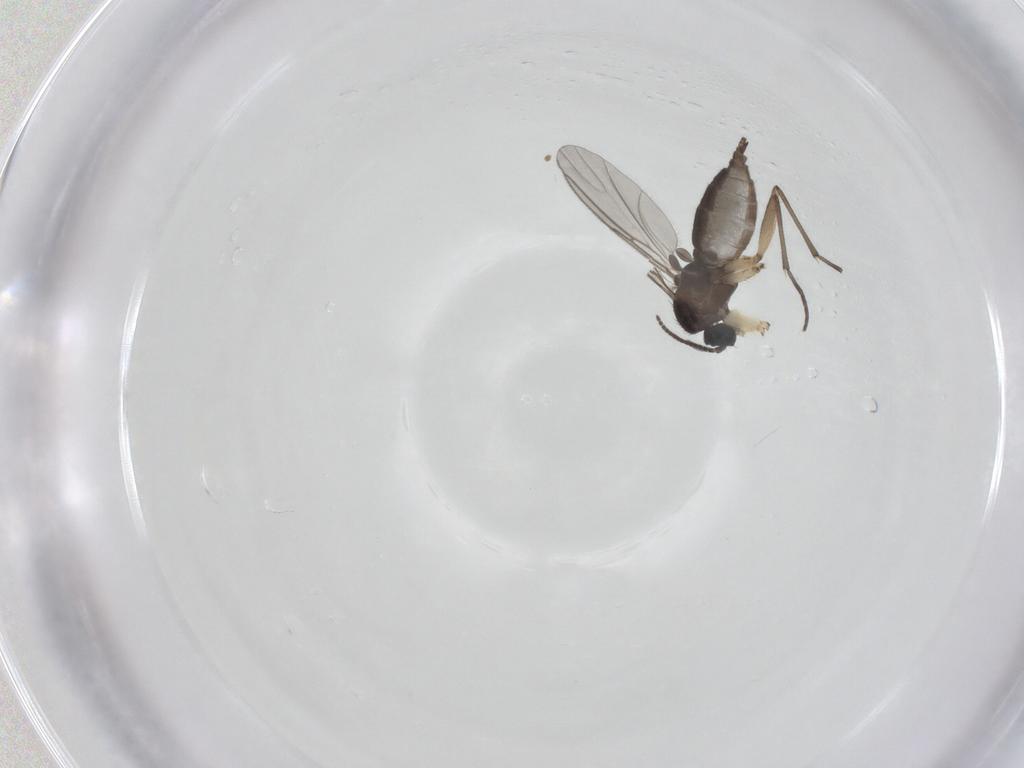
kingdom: Animalia
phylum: Arthropoda
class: Insecta
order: Diptera
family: Sciaridae
